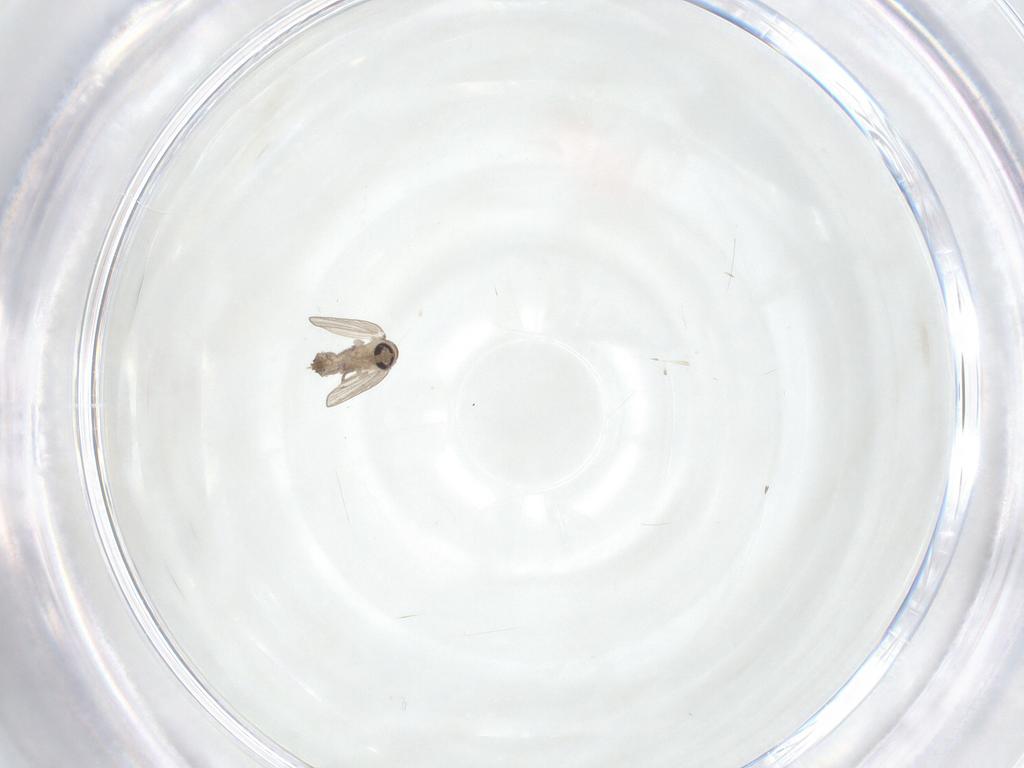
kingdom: Animalia
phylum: Arthropoda
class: Insecta
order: Diptera
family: Psychodidae
